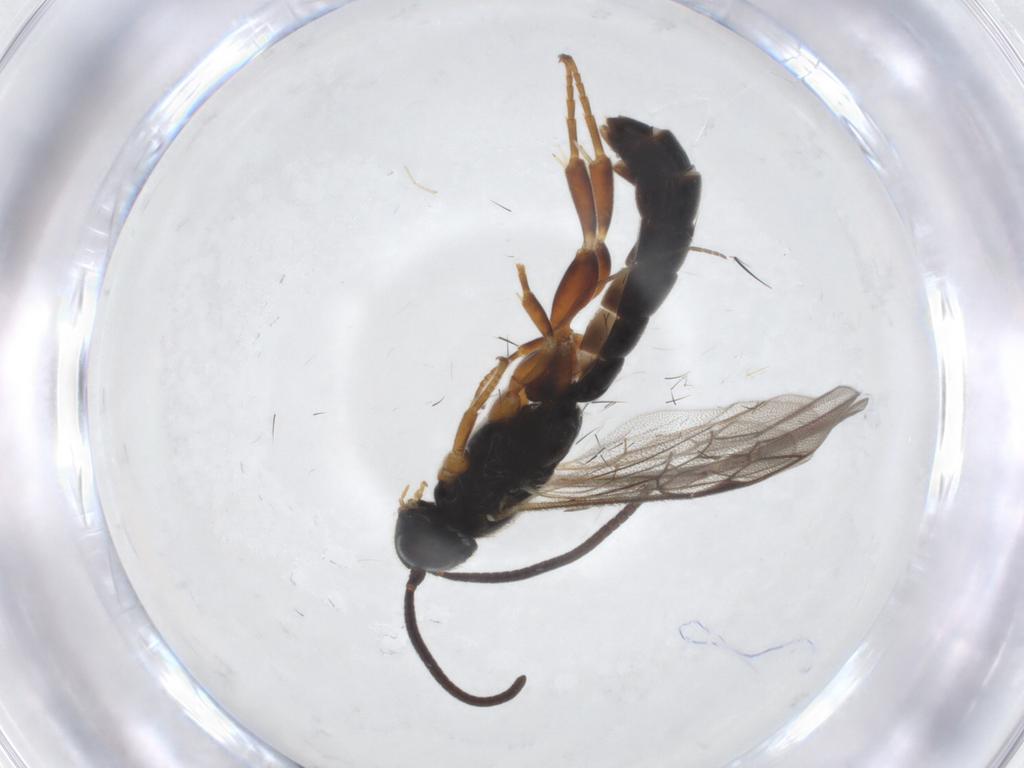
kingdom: Animalia
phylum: Arthropoda
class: Insecta
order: Hymenoptera
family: Ichneumonidae
